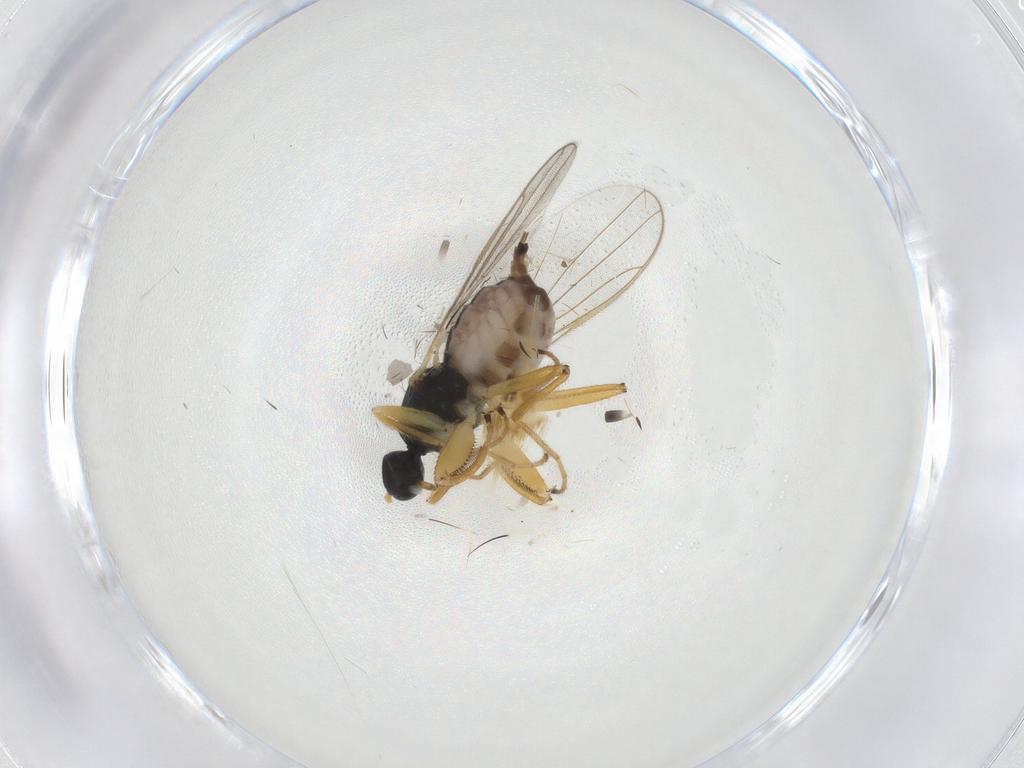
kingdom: Animalia
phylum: Arthropoda
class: Insecta
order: Diptera
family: Hybotidae
